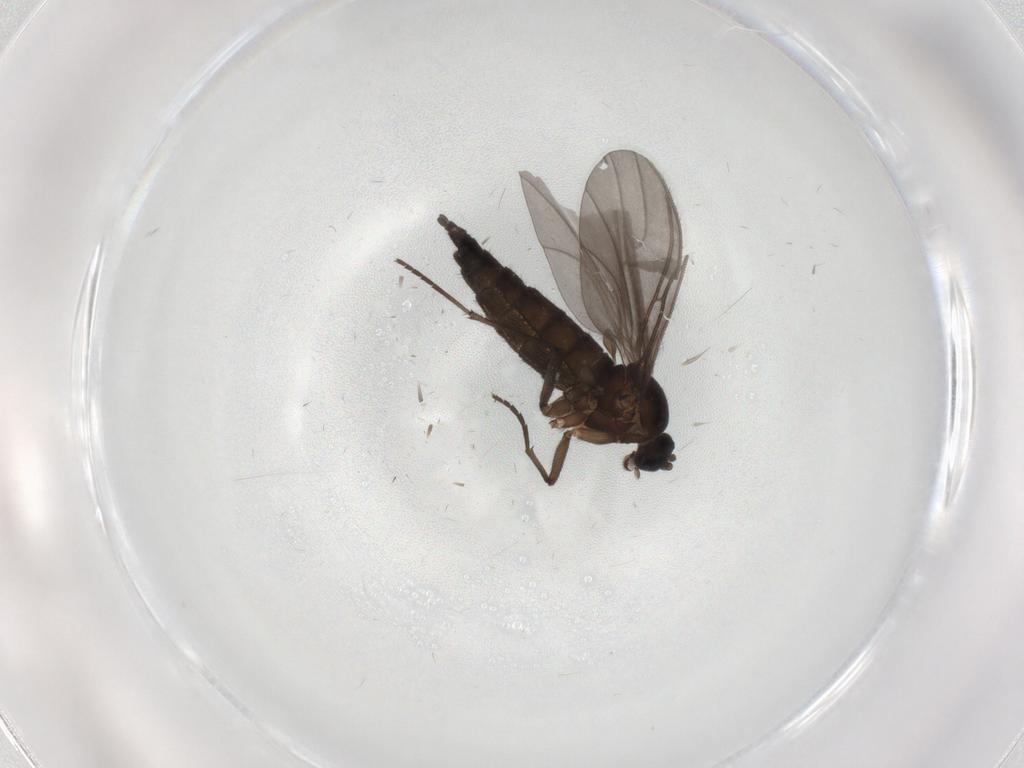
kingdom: Animalia
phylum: Arthropoda
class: Insecta
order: Diptera
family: Sciaridae
